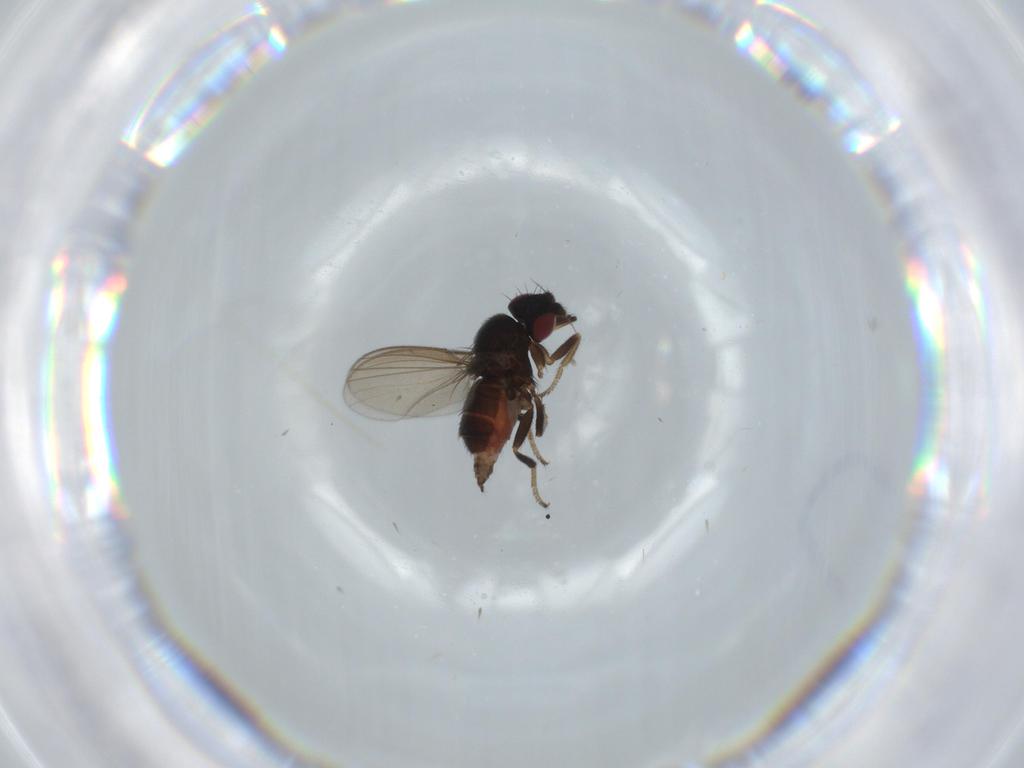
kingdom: Animalia
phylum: Arthropoda
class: Insecta
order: Diptera
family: Milichiidae
